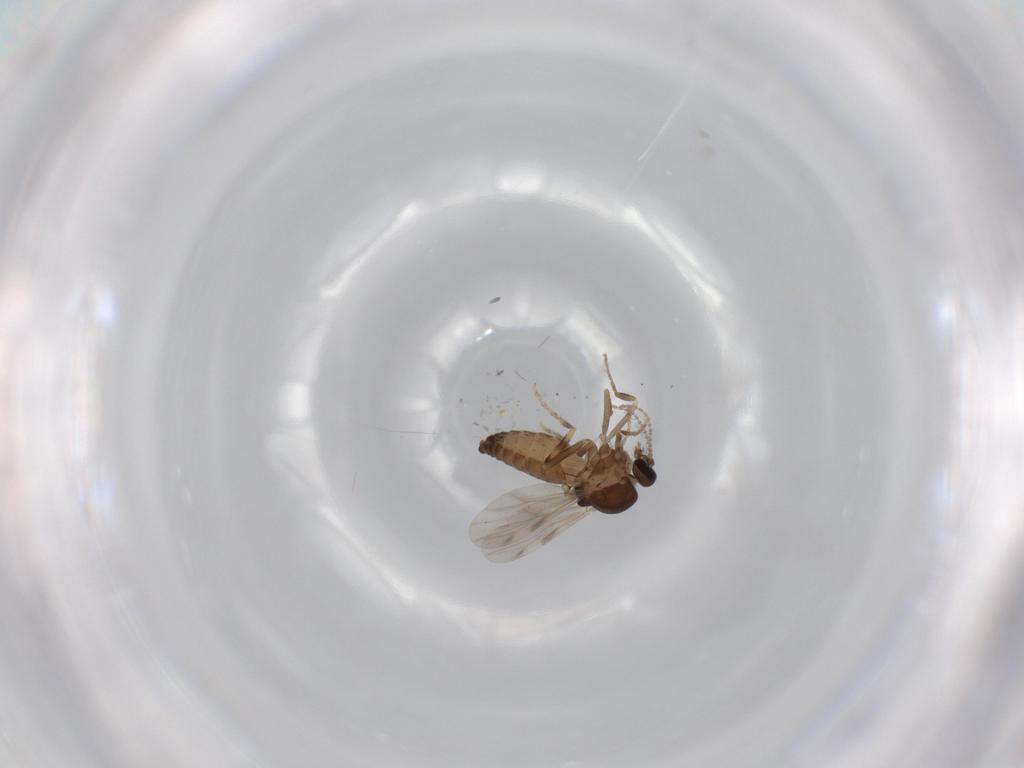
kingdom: Animalia
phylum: Arthropoda
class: Insecta
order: Diptera
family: Ceratopogonidae
